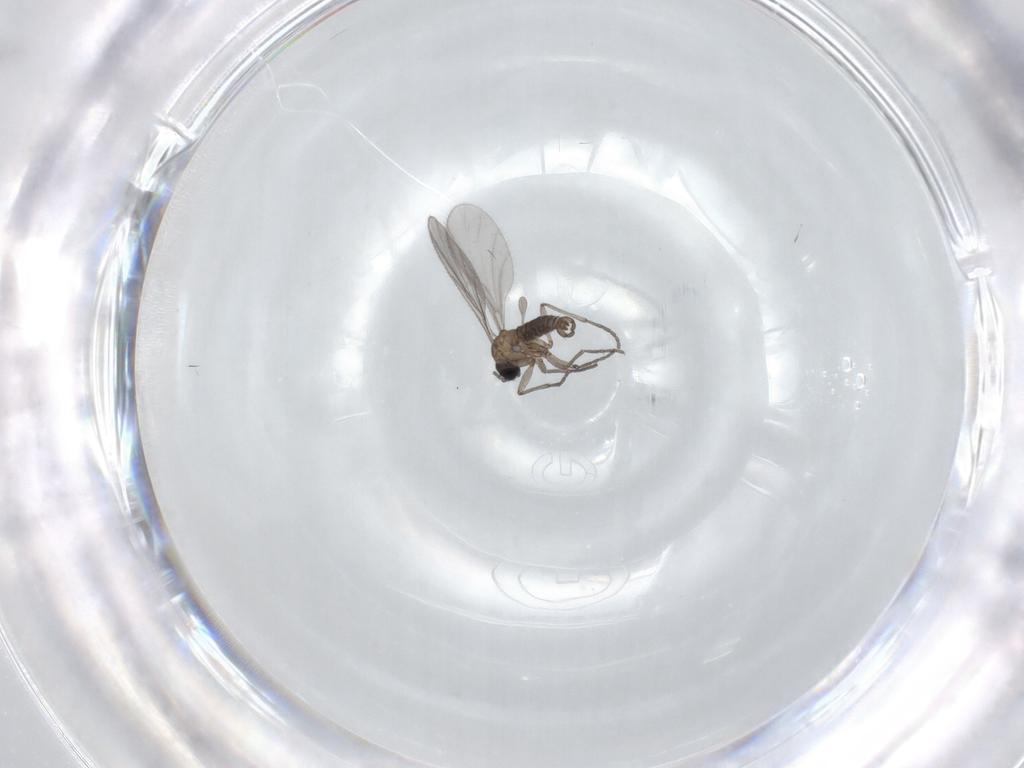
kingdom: Animalia
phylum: Arthropoda
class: Insecta
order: Diptera
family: Sciaridae
